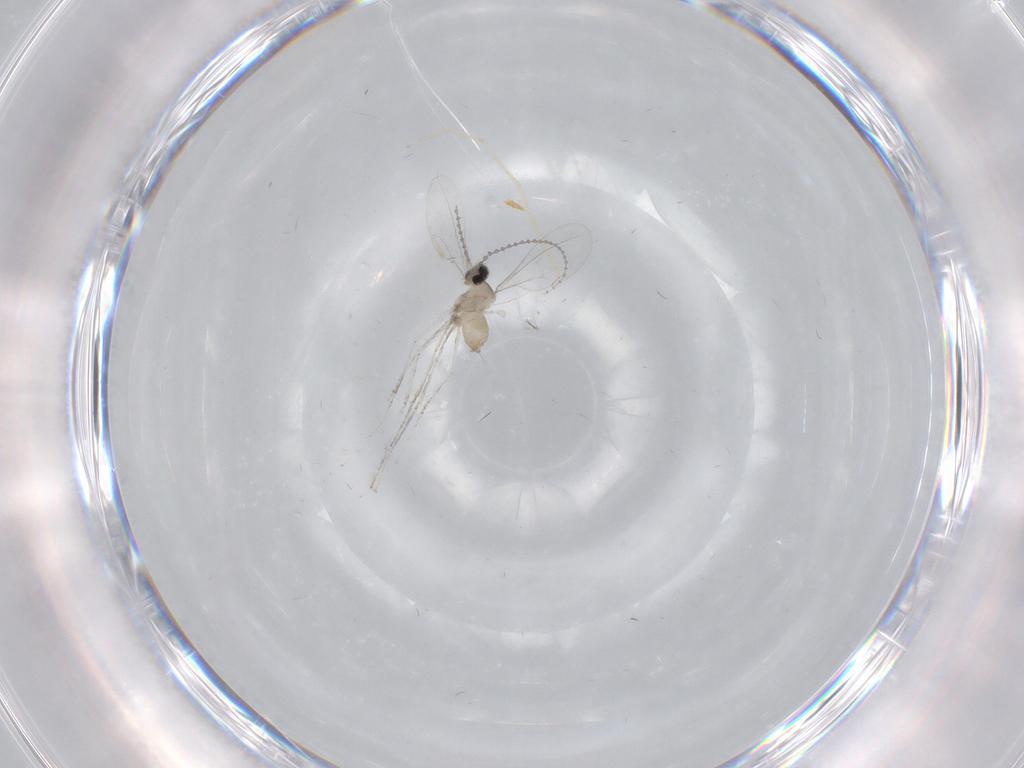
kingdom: Animalia
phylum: Arthropoda
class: Insecta
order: Diptera
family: Cecidomyiidae
